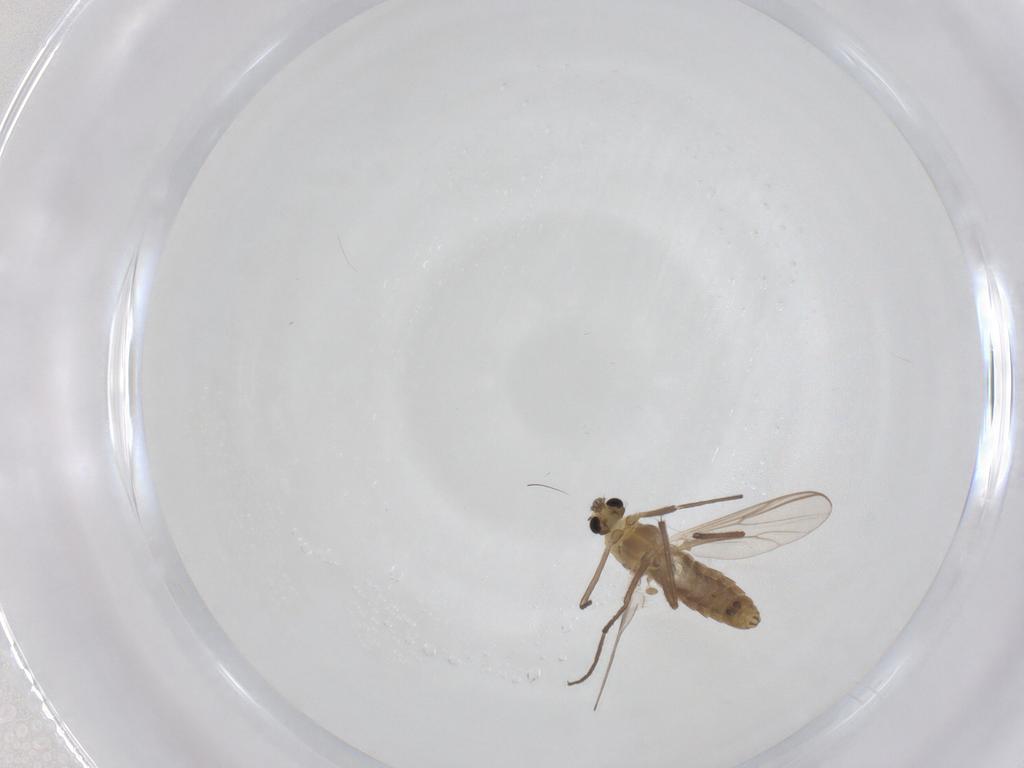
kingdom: Animalia
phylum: Arthropoda
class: Insecta
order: Diptera
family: Chironomidae
